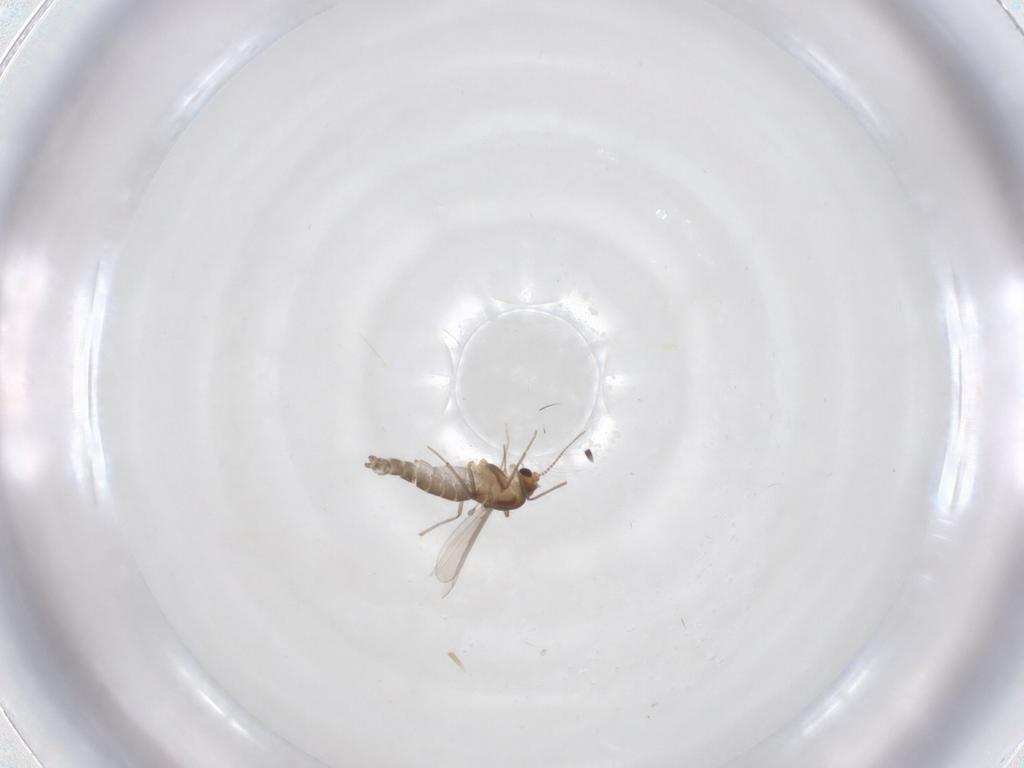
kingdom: Animalia
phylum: Arthropoda
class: Insecta
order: Diptera
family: Chironomidae
